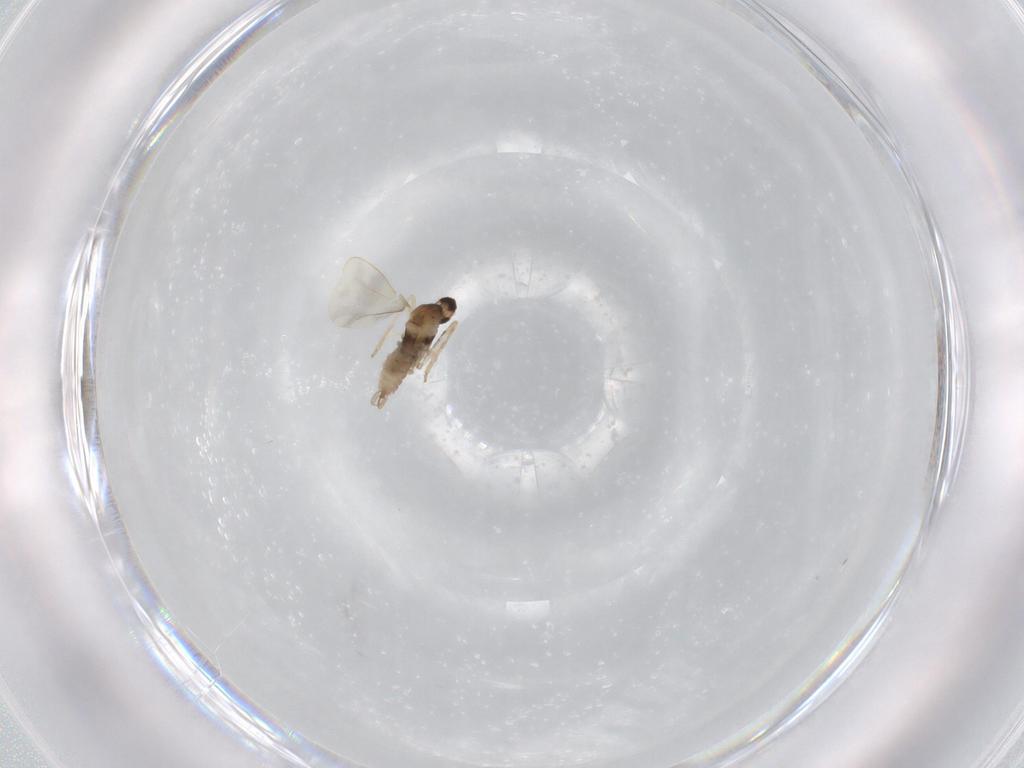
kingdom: Animalia
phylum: Arthropoda
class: Insecta
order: Diptera
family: Cecidomyiidae
